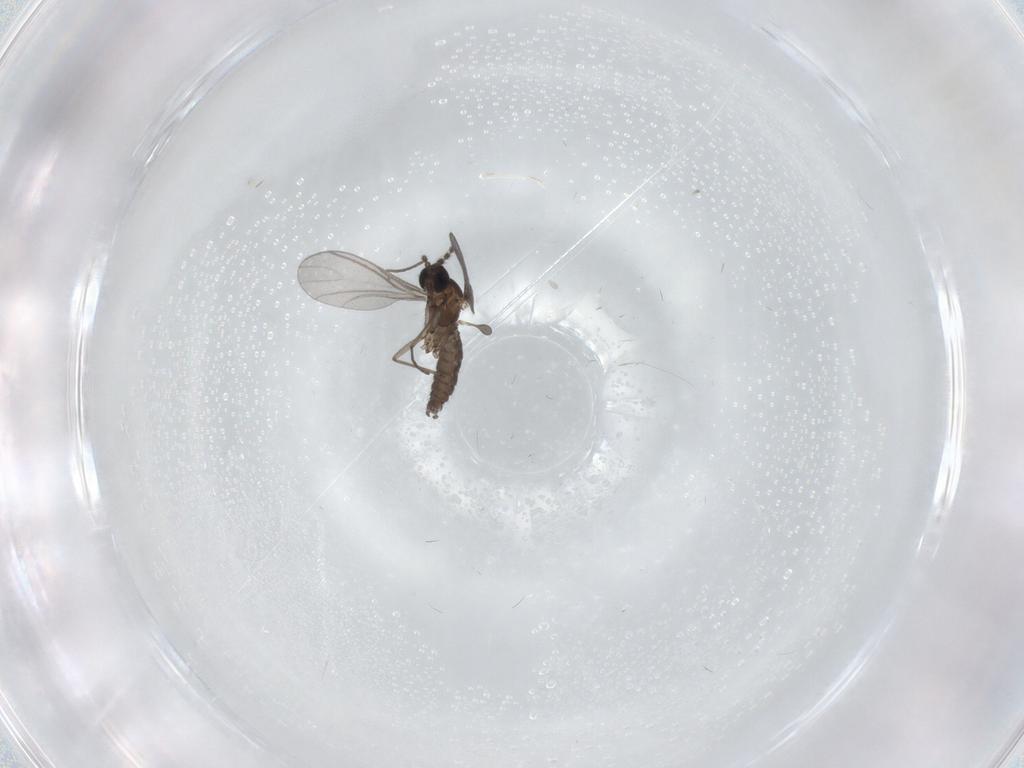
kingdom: Animalia
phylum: Arthropoda
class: Insecta
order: Diptera
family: Sciaridae
